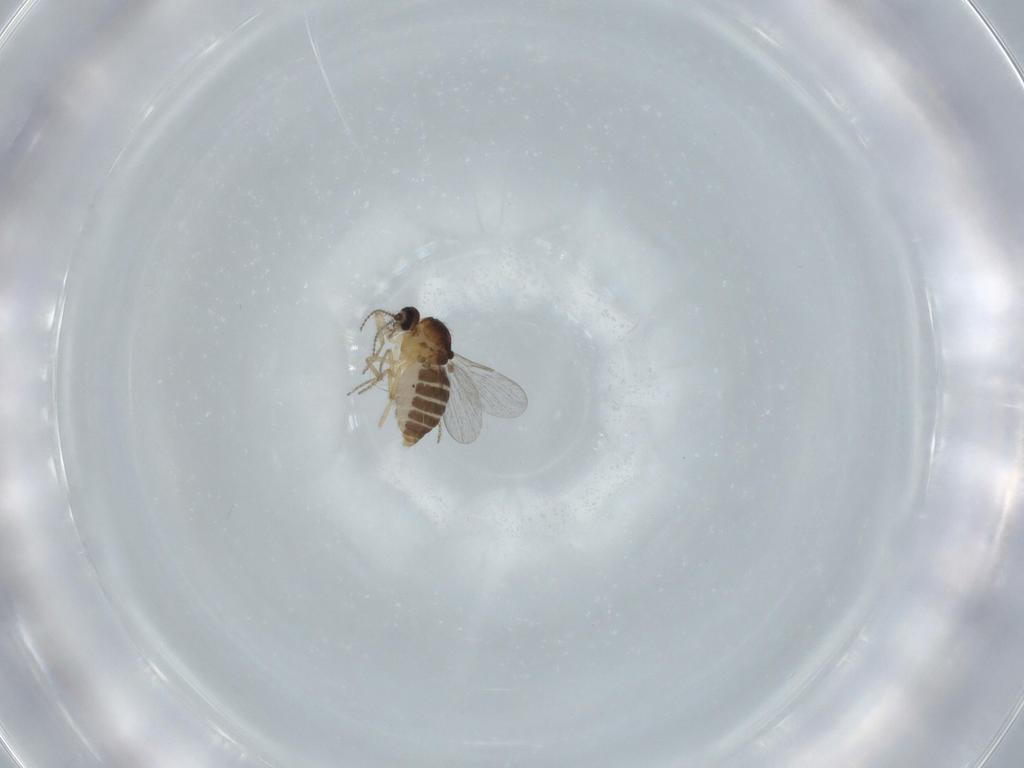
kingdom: Animalia
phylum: Arthropoda
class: Insecta
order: Diptera
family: Ceratopogonidae
